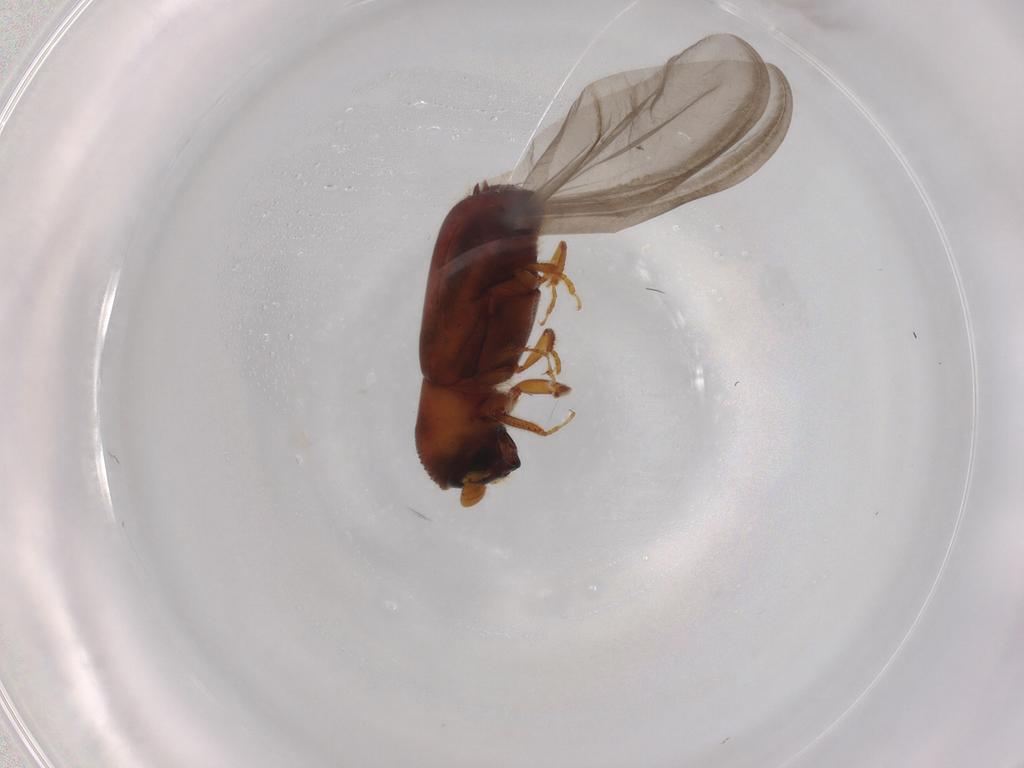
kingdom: Animalia
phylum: Arthropoda
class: Insecta
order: Coleoptera
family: Curculionidae
